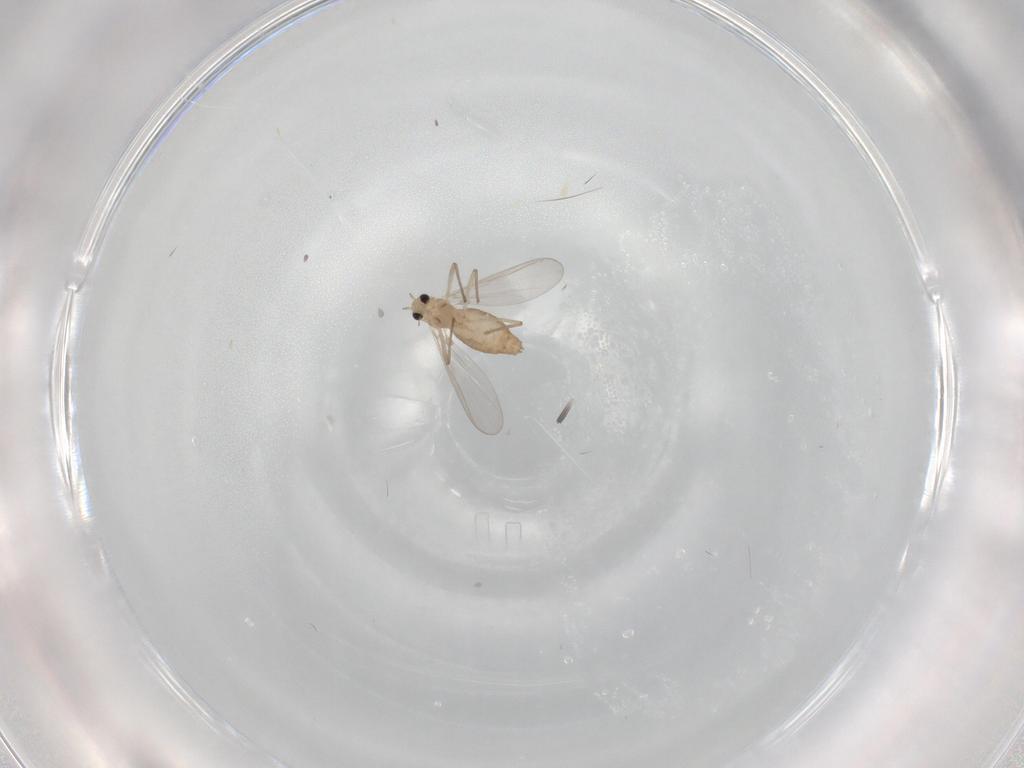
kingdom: Animalia
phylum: Arthropoda
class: Insecta
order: Diptera
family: Chironomidae
